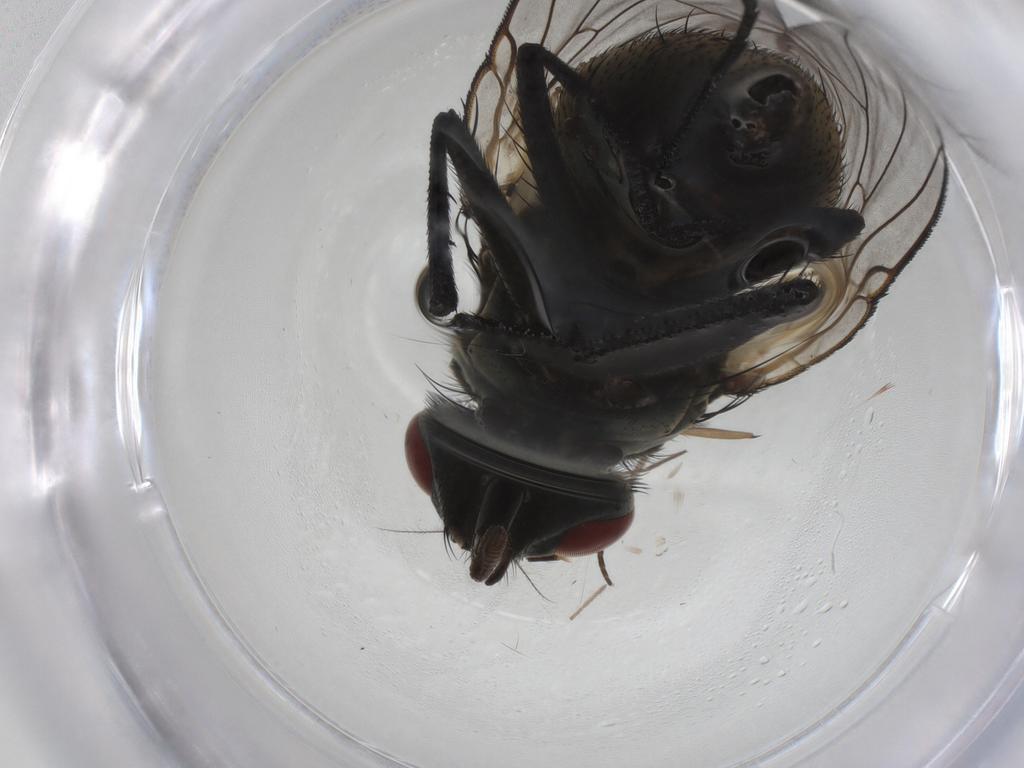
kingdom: Animalia
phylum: Arthropoda
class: Insecta
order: Diptera
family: Muscidae
